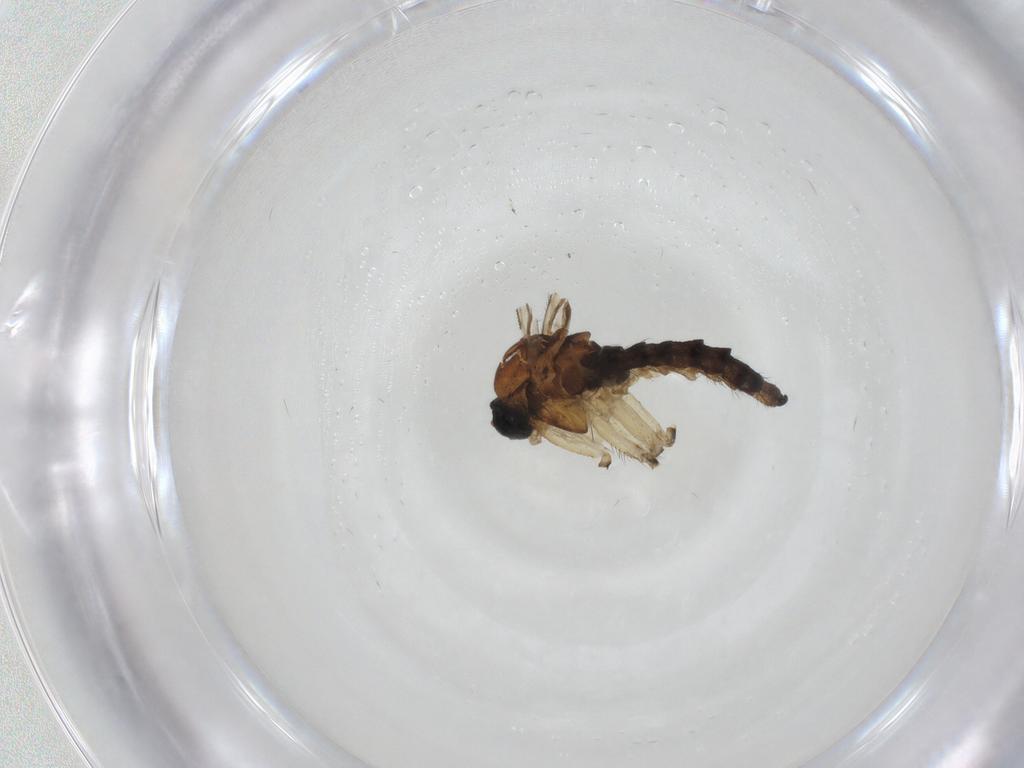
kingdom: Animalia
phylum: Arthropoda
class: Insecta
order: Diptera
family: Sciaridae
